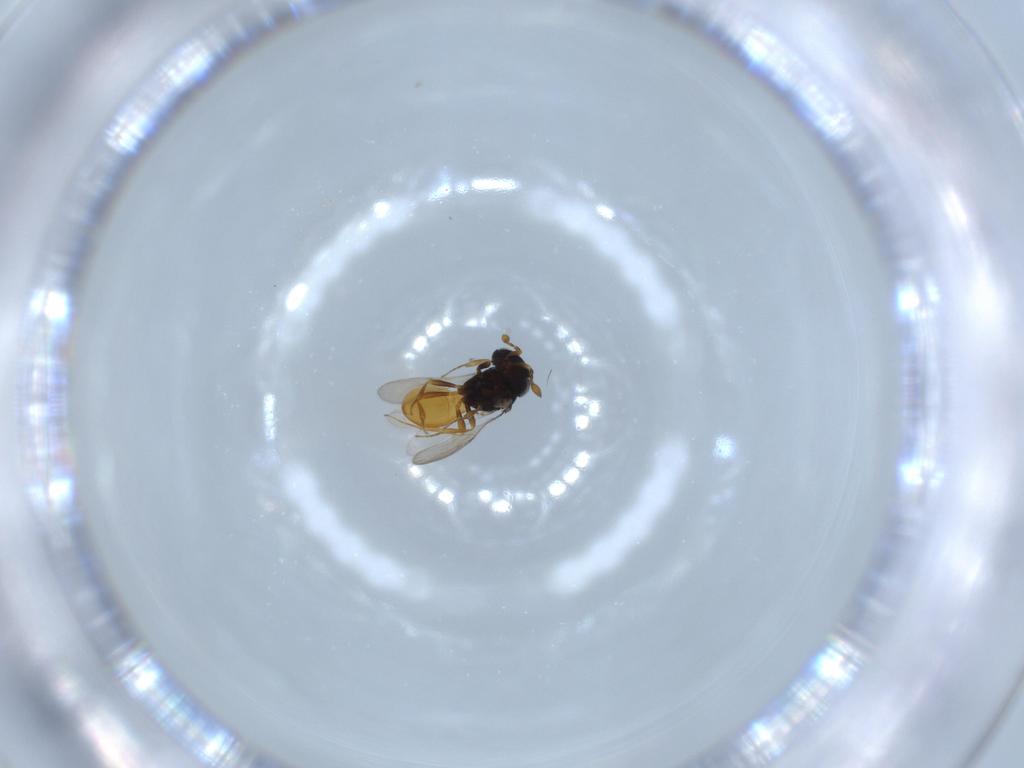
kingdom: Animalia
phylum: Arthropoda
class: Insecta
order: Hymenoptera
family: Scelionidae
